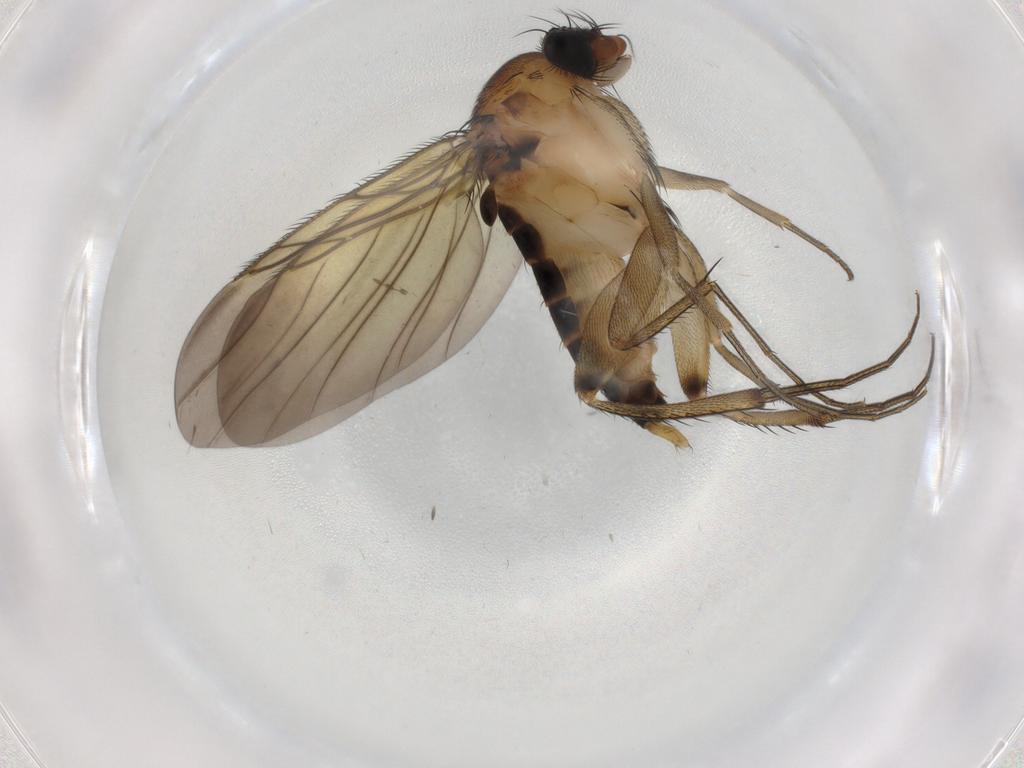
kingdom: Animalia
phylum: Arthropoda
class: Insecta
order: Diptera
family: Phoridae
